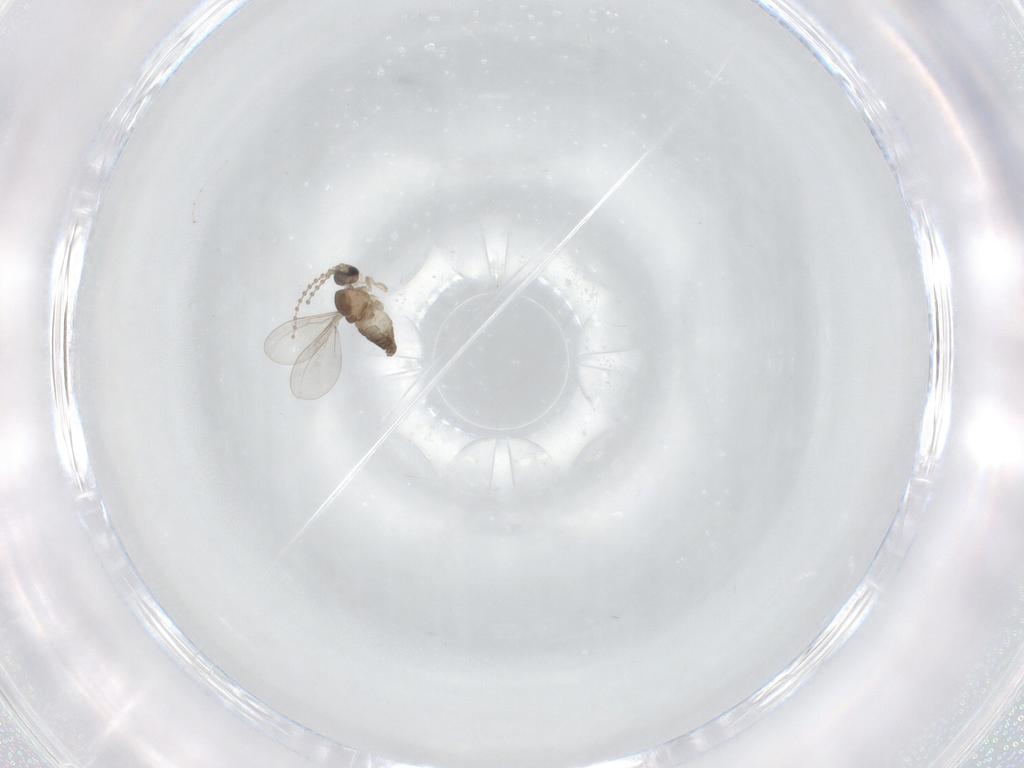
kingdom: Animalia
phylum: Arthropoda
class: Insecta
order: Diptera
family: Cecidomyiidae
